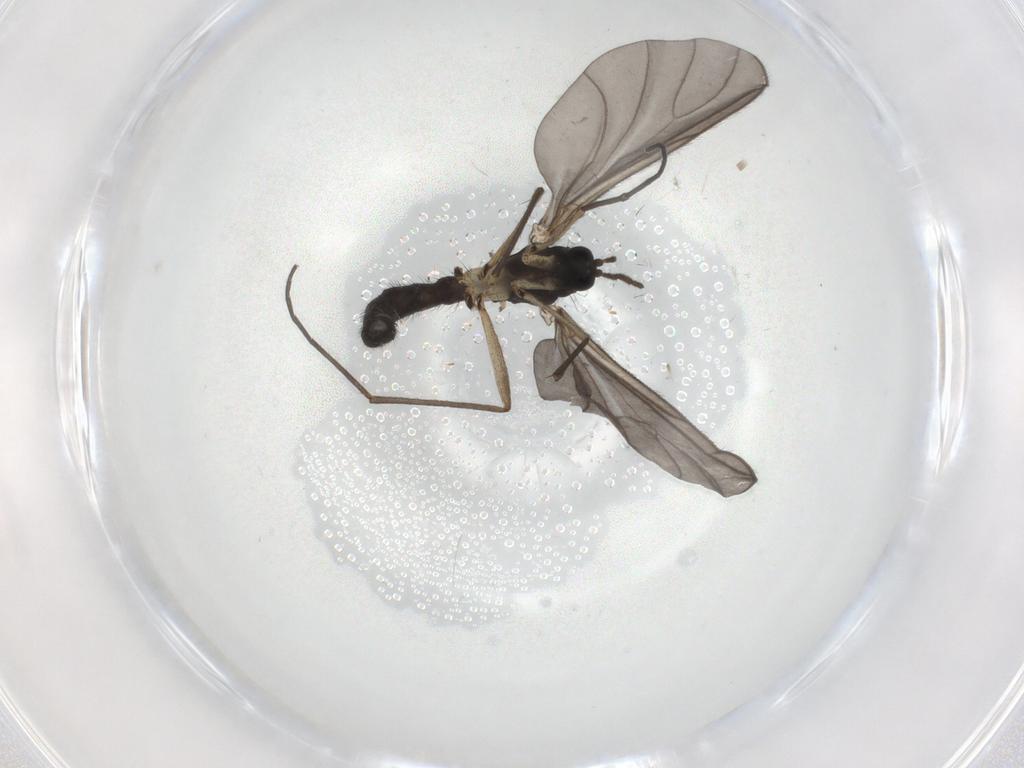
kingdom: Animalia
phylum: Arthropoda
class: Insecta
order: Diptera
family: Sciaridae
